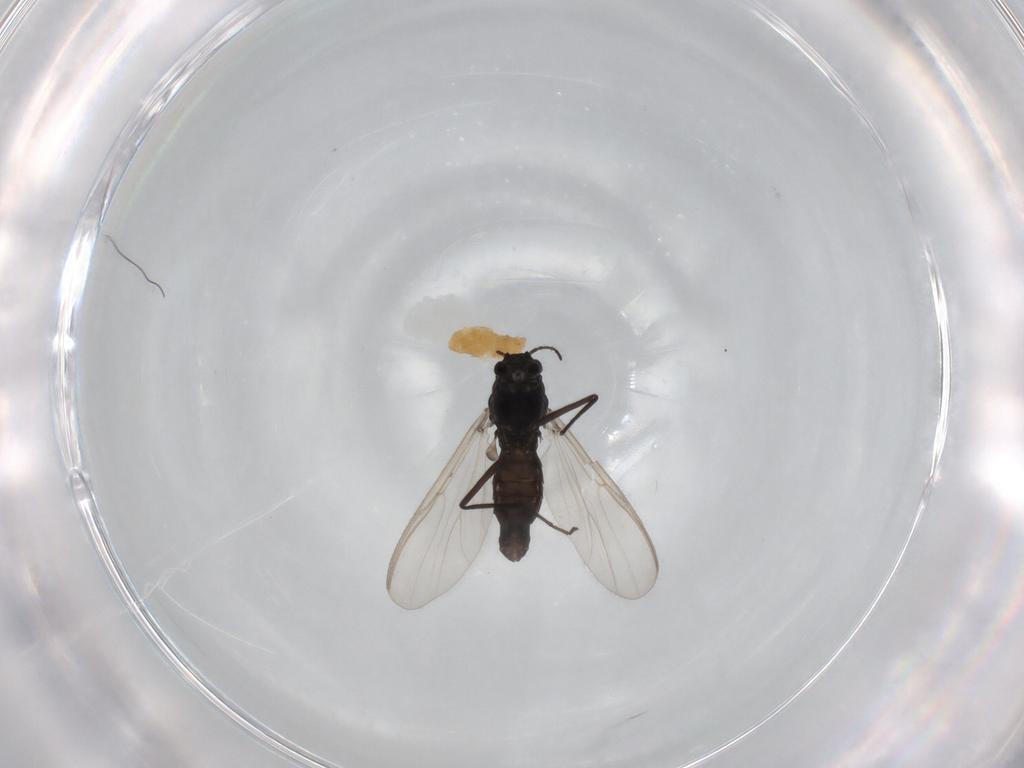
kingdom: Animalia
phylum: Arthropoda
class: Insecta
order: Diptera
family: Chironomidae
